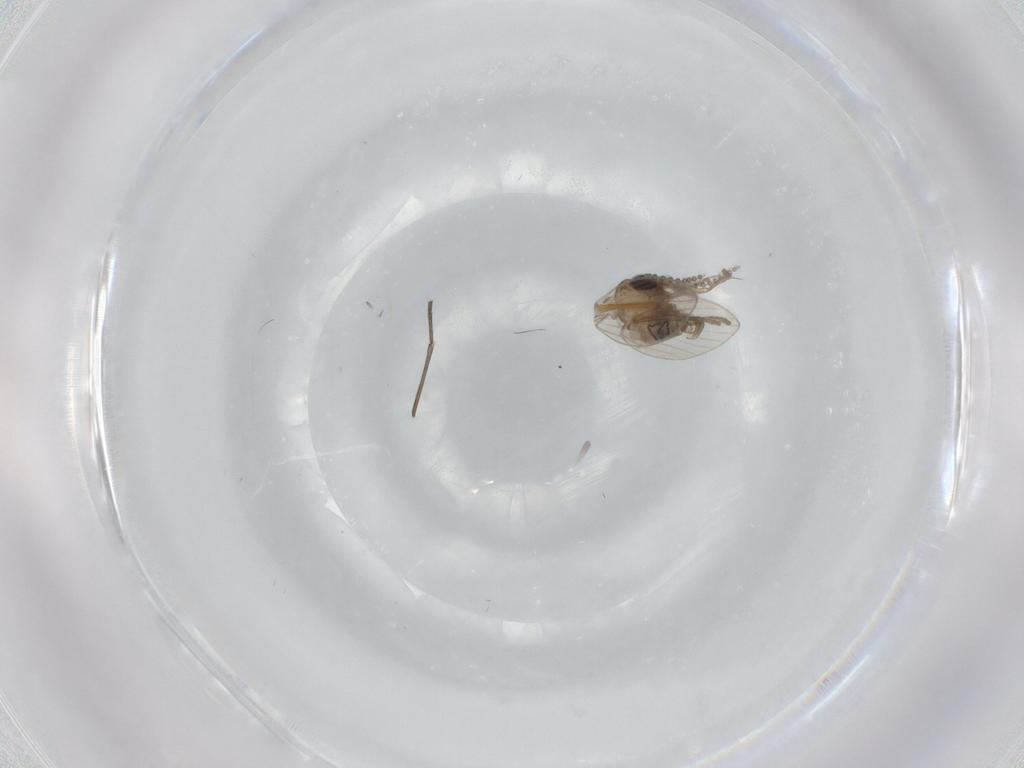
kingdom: Animalia
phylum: Arthropoda
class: Insecta
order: Diptera
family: Psychodidae
